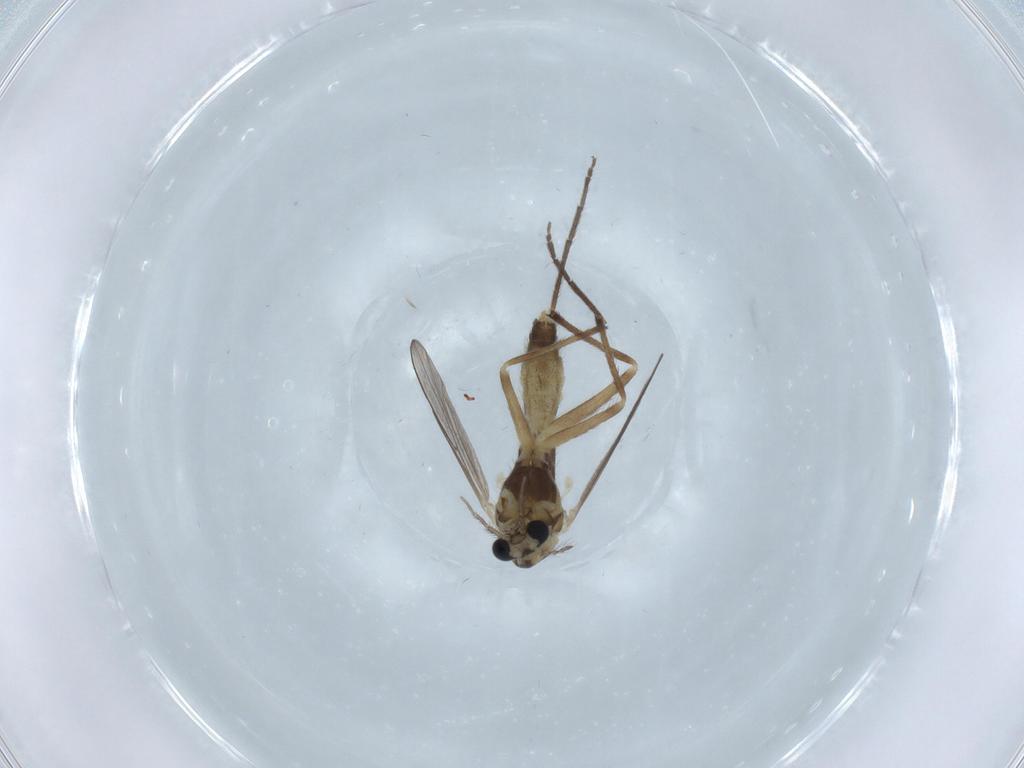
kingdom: Animalia
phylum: Arthropoda
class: Insecta
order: Diptera
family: Chironomidae
